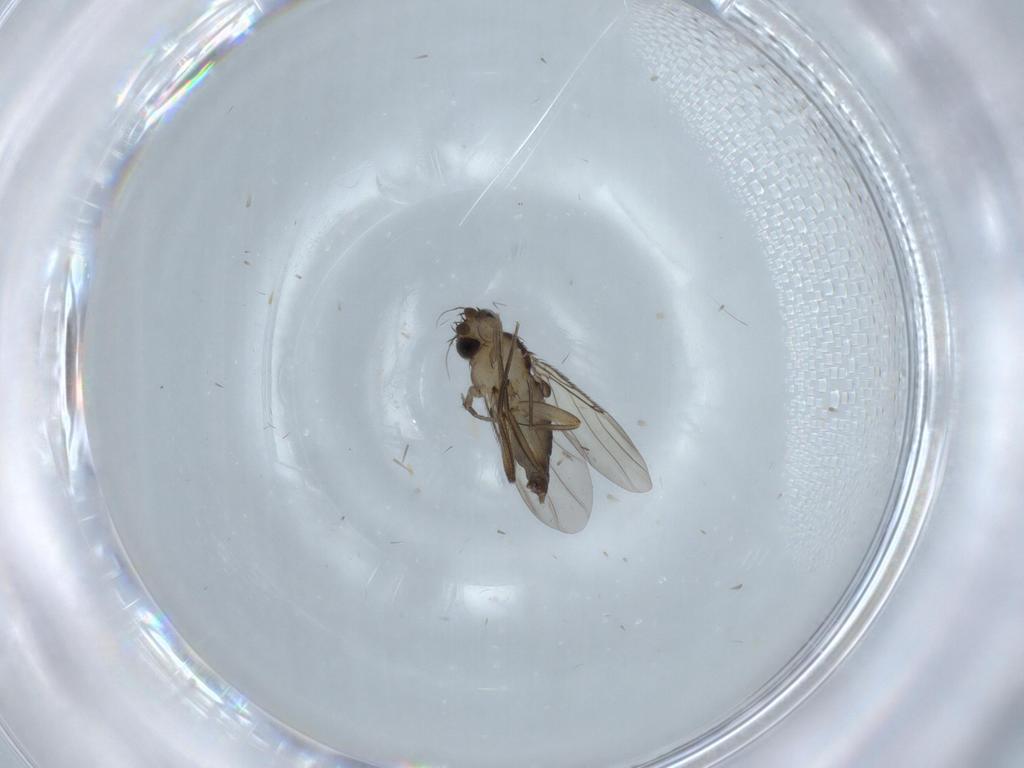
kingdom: Animalia
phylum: Arthropoda
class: Insecta
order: Diptera
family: Phoridae
